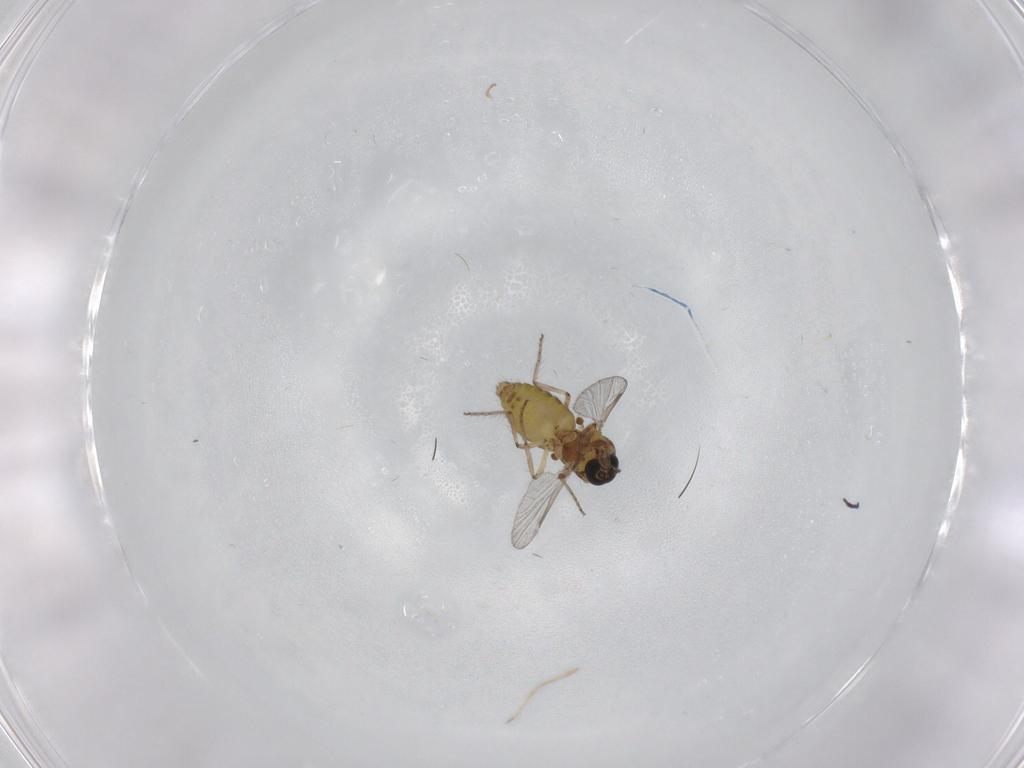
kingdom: Animalia
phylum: Arthropoda
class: Insecta
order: Diptera
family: Ceratopogonidae
